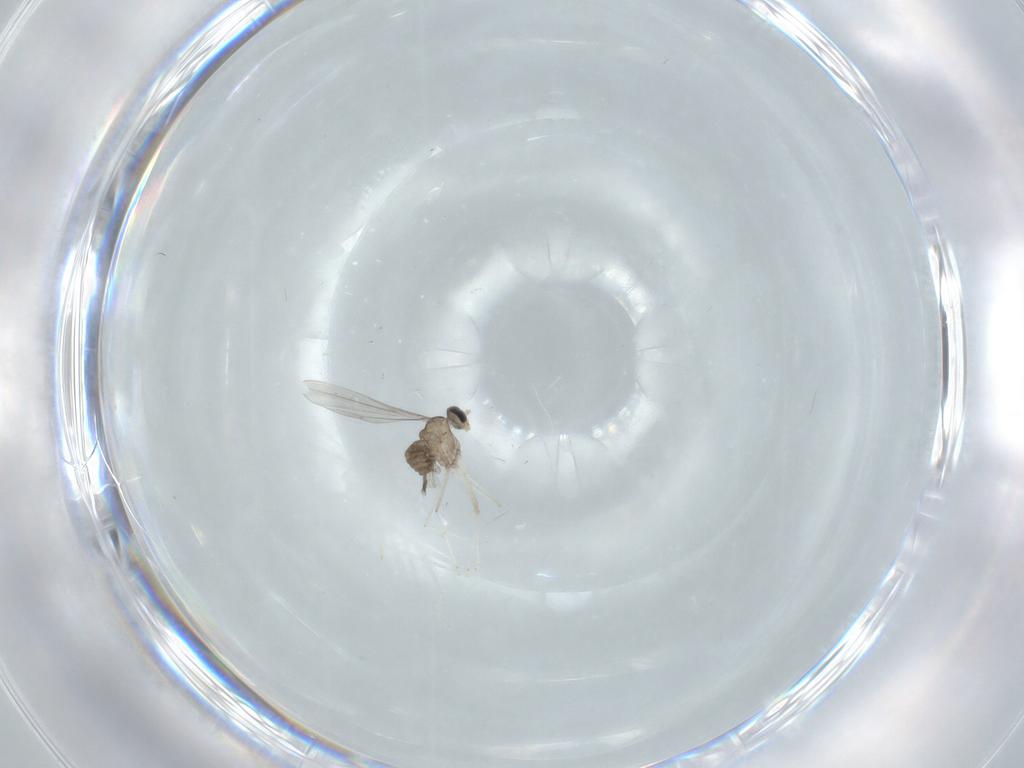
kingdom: Animalia
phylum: Arthropoda
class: Insecta
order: Diptera
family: Cecidomyiidae
